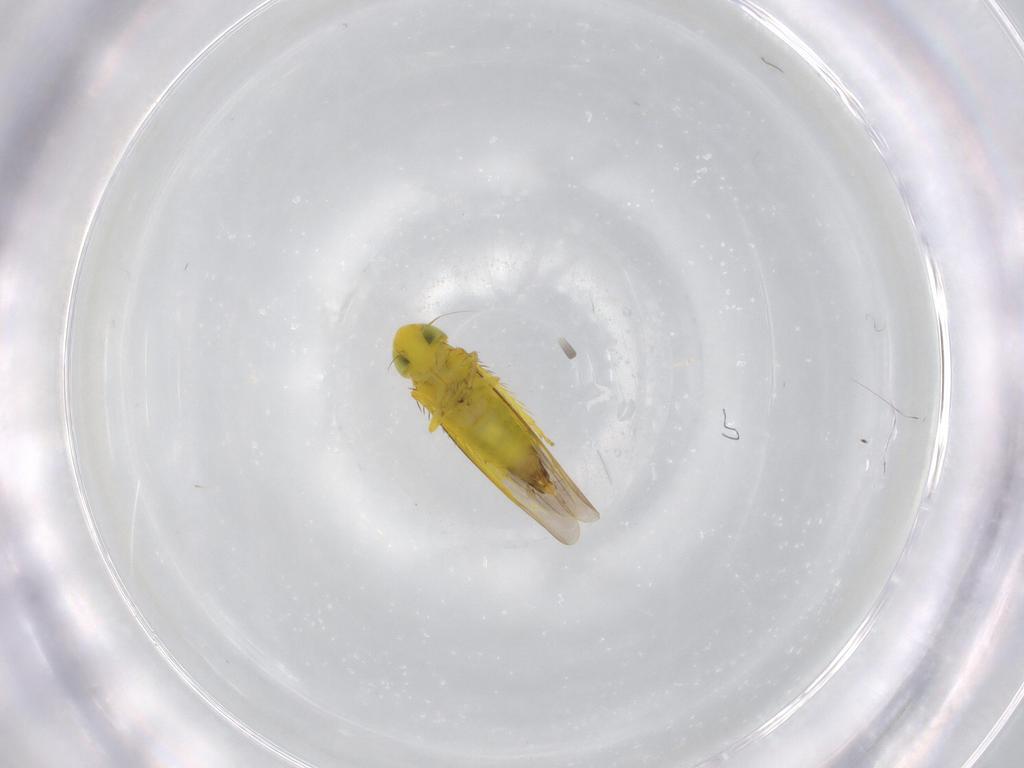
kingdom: Animalia
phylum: Arthropoda
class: Insecta
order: Hemiptera
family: Cicadellidae
